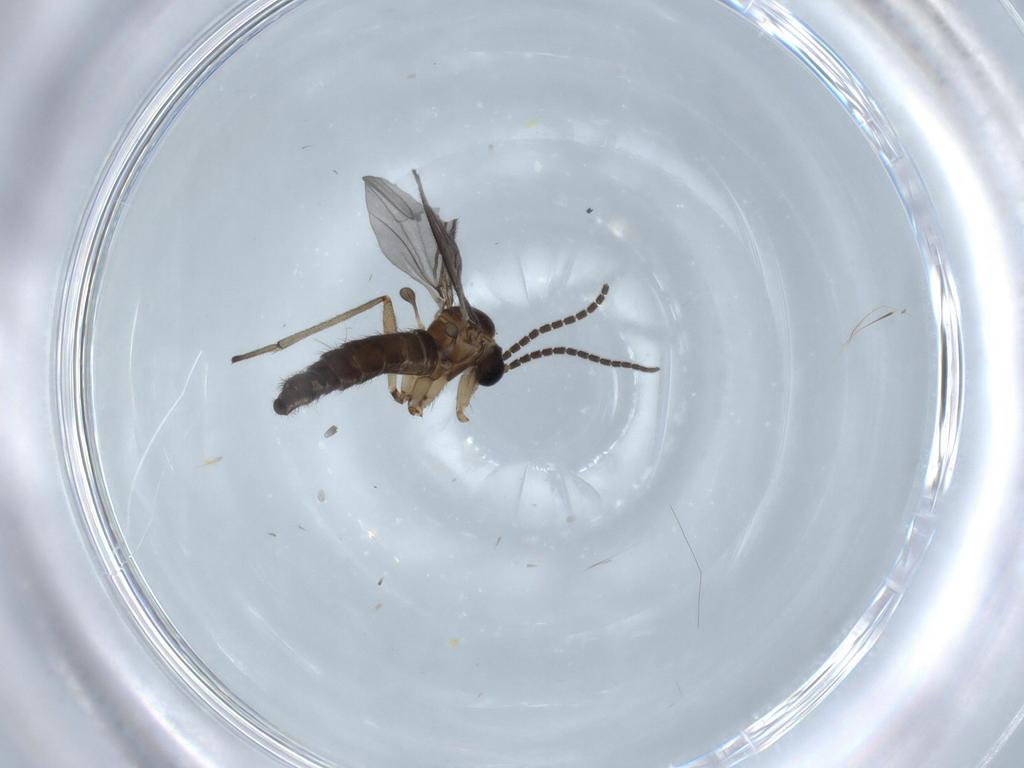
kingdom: Animalia
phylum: Arthropoda
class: Insecta
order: Diptera
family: Sciaridae
